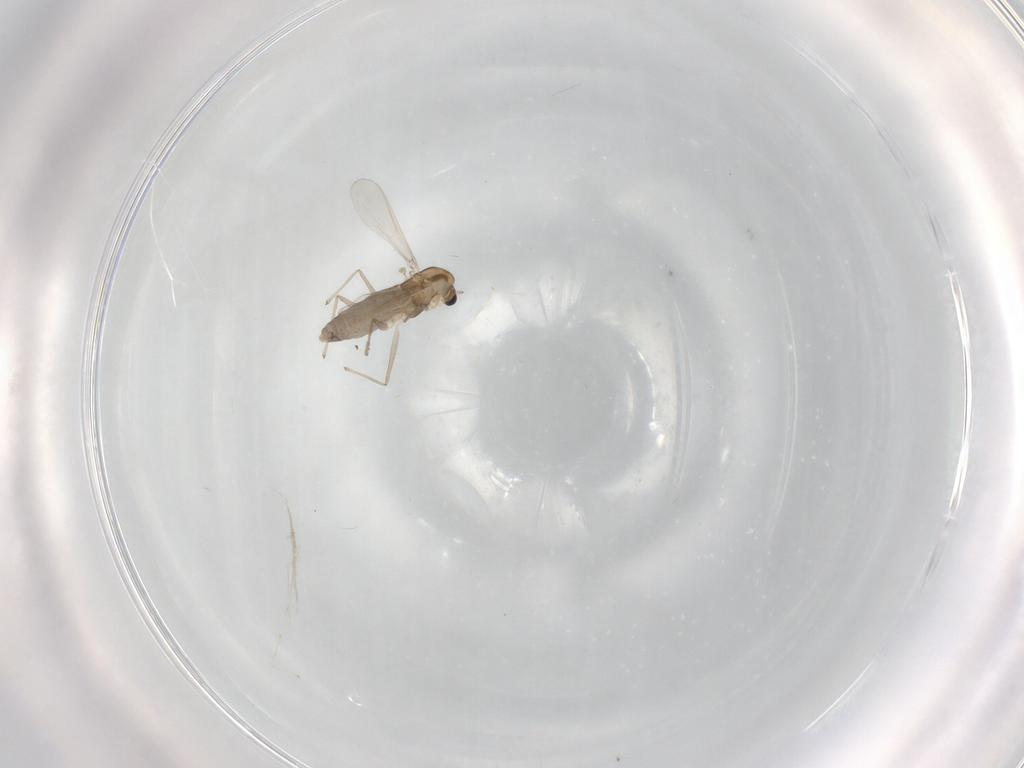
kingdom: Animalia
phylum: Arthropoda
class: Insecta
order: Diptera
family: Chironomidae
